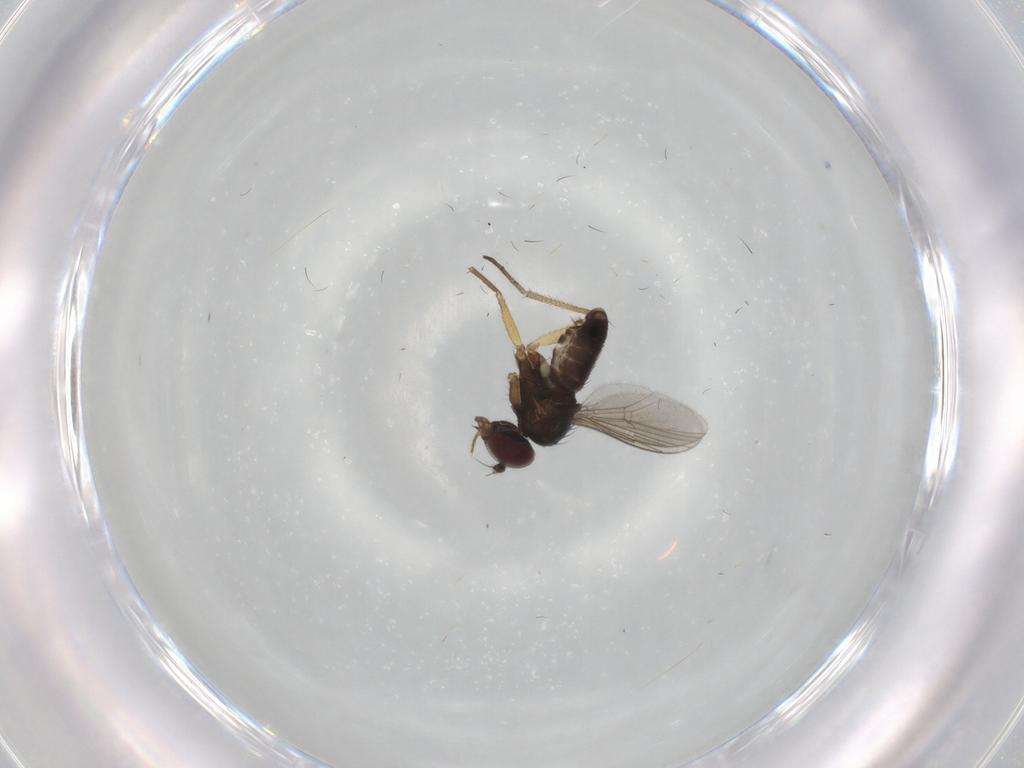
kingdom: Animalia
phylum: Arthropoda
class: Insecta
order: Diptera
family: Dolichopodidae
